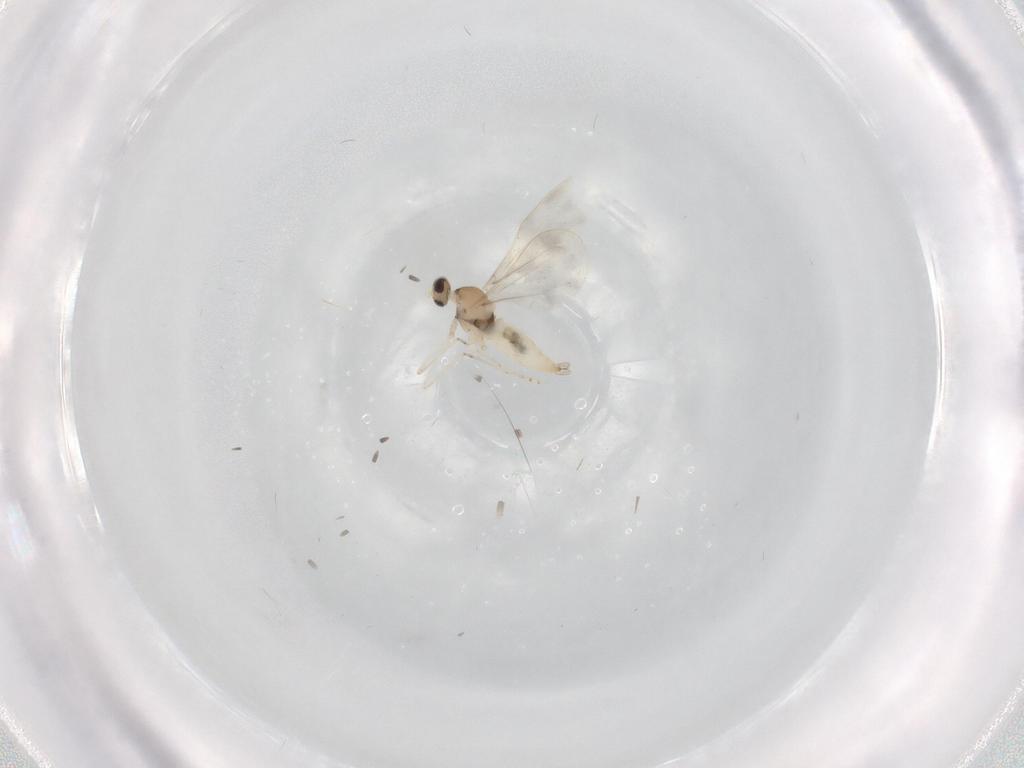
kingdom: Animalia
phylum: Arthropoda
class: Insecta
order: Diptera
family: Cecidomyiidae
